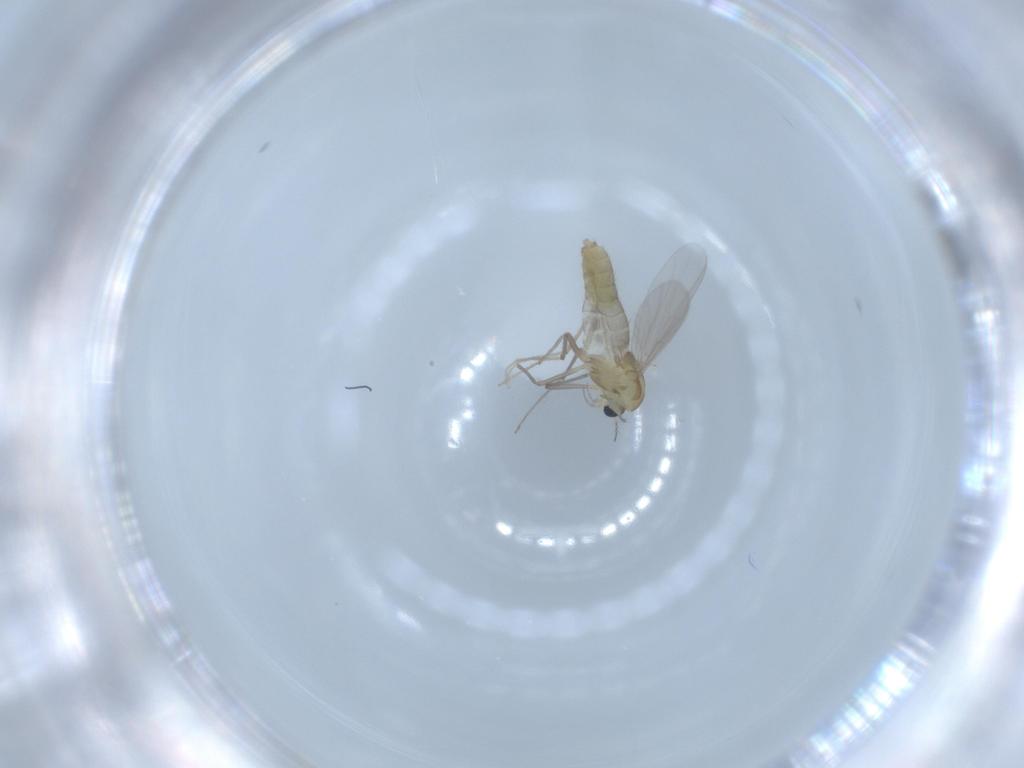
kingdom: Animalia
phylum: Arthropoda
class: Insecta
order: Diptera
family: Chironomidae
